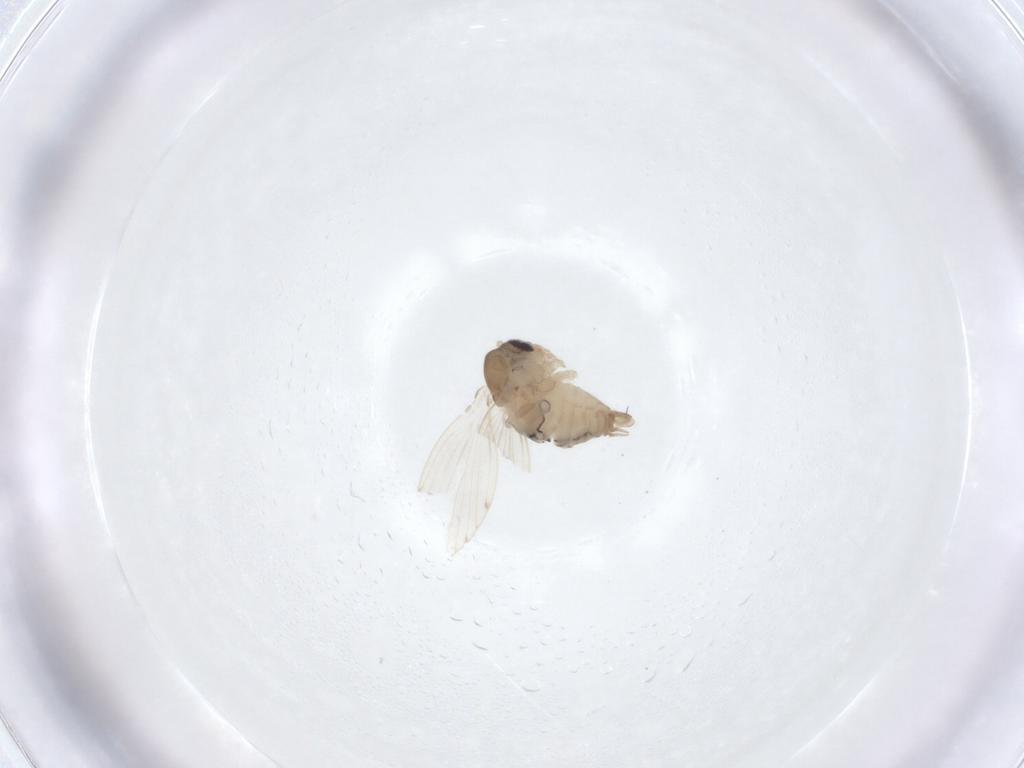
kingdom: Animalia
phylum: Arthropoda
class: Insecta
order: Diptera
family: Psychodidae
